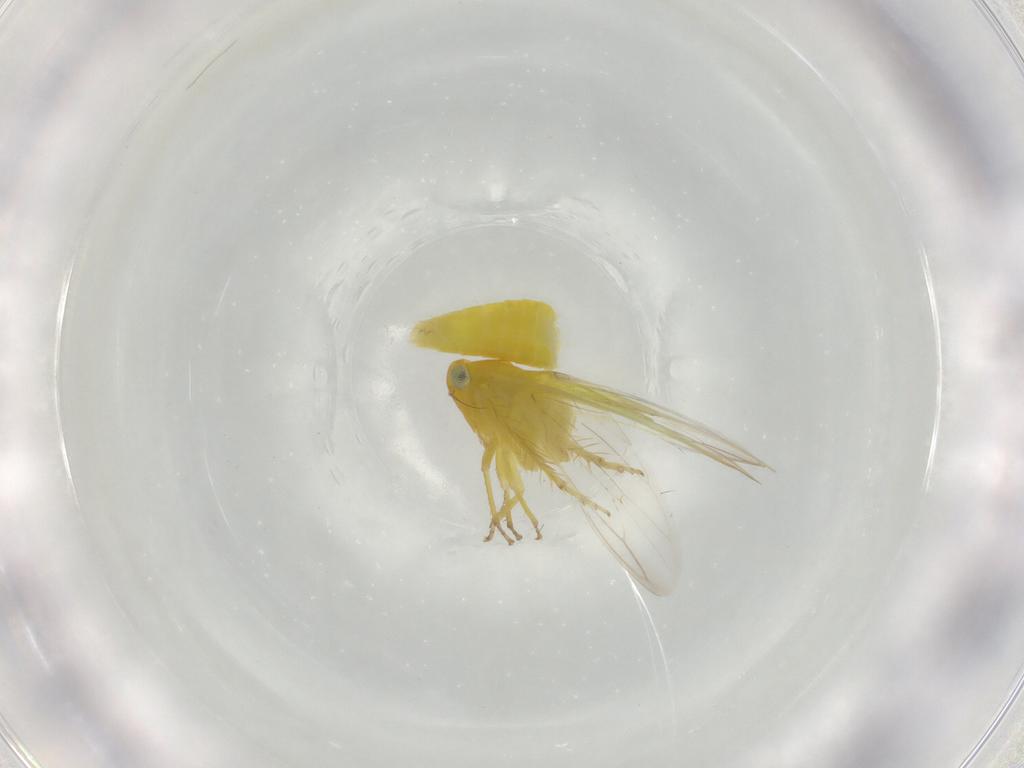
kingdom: Animalia
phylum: Arthropoda
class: Insecta
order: Hemiptera
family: Cicadellidae
